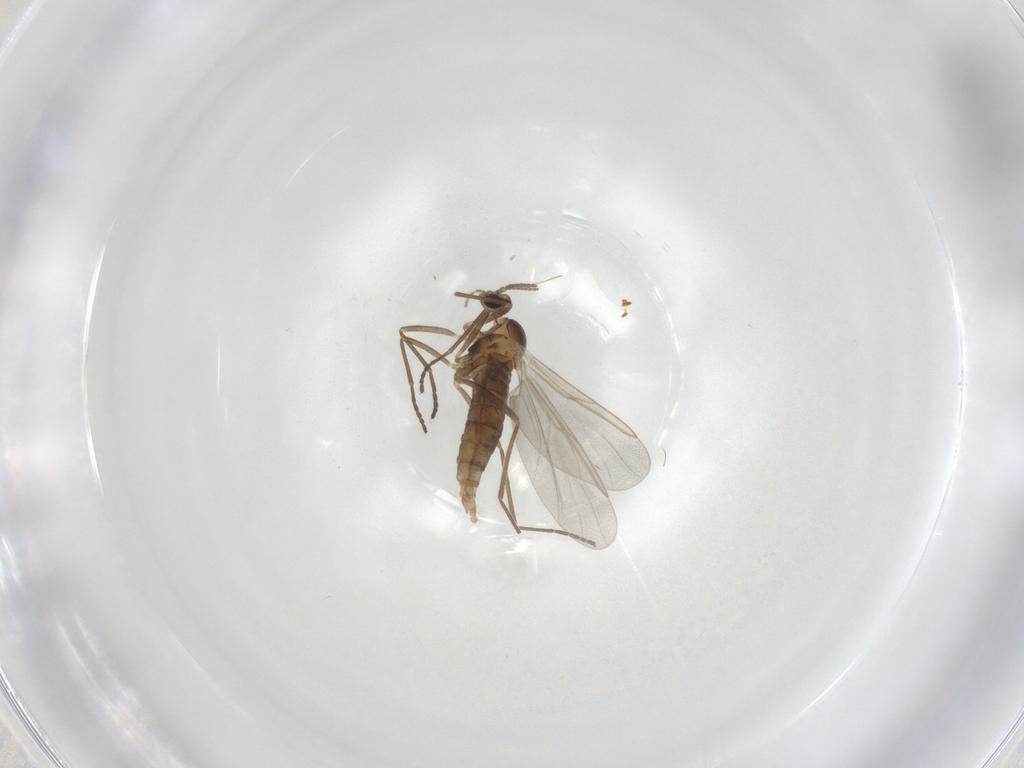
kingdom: Animalia
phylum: Arthropoda
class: Insecta
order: Diptera
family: Cecidomyiidae
